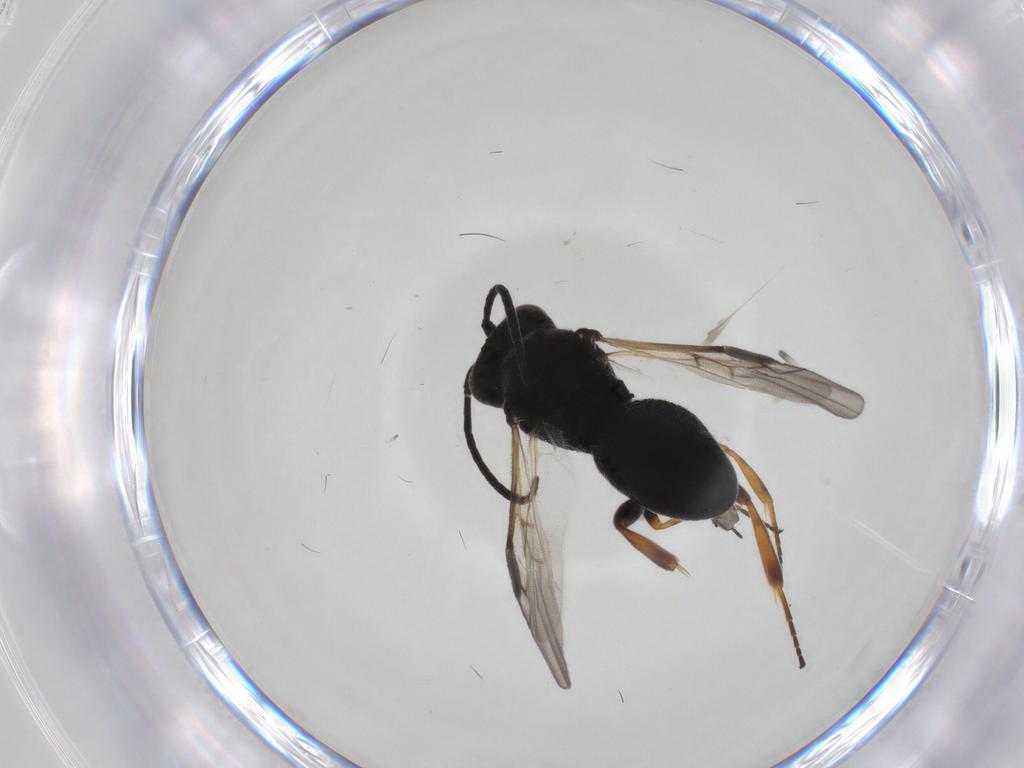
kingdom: Animalia
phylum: Arthropoda
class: Insecta
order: Hymenoptera
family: Braconidae
